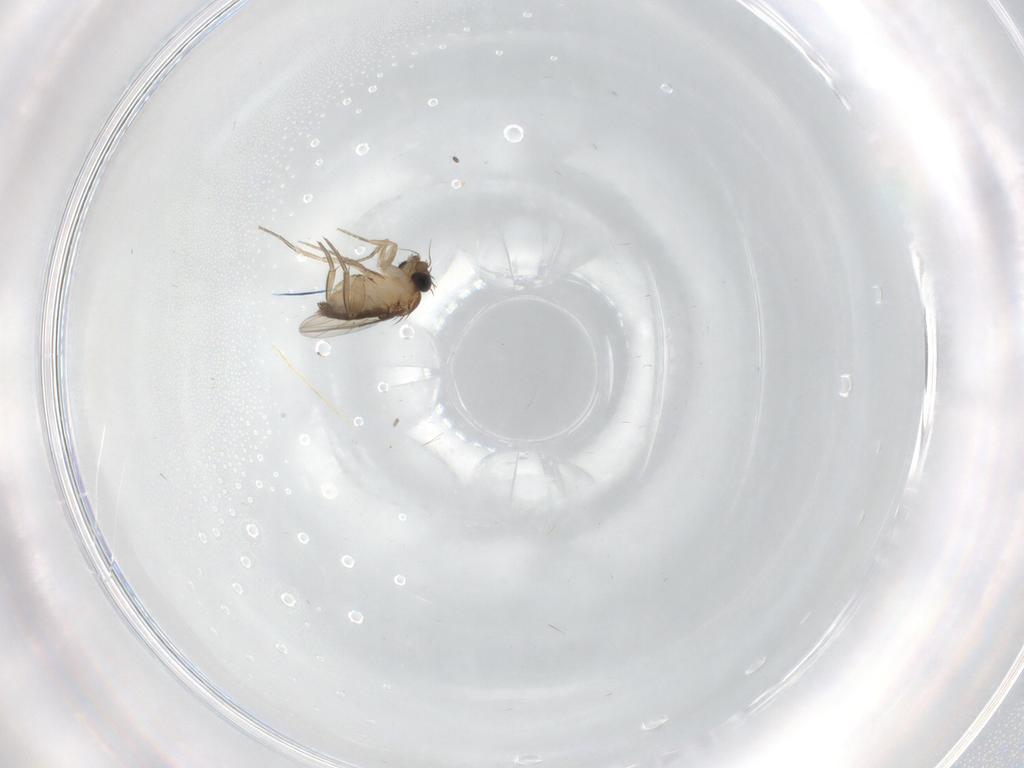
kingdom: Animalia
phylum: Arthropoda
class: Insecta
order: Diptera
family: Phoridae
